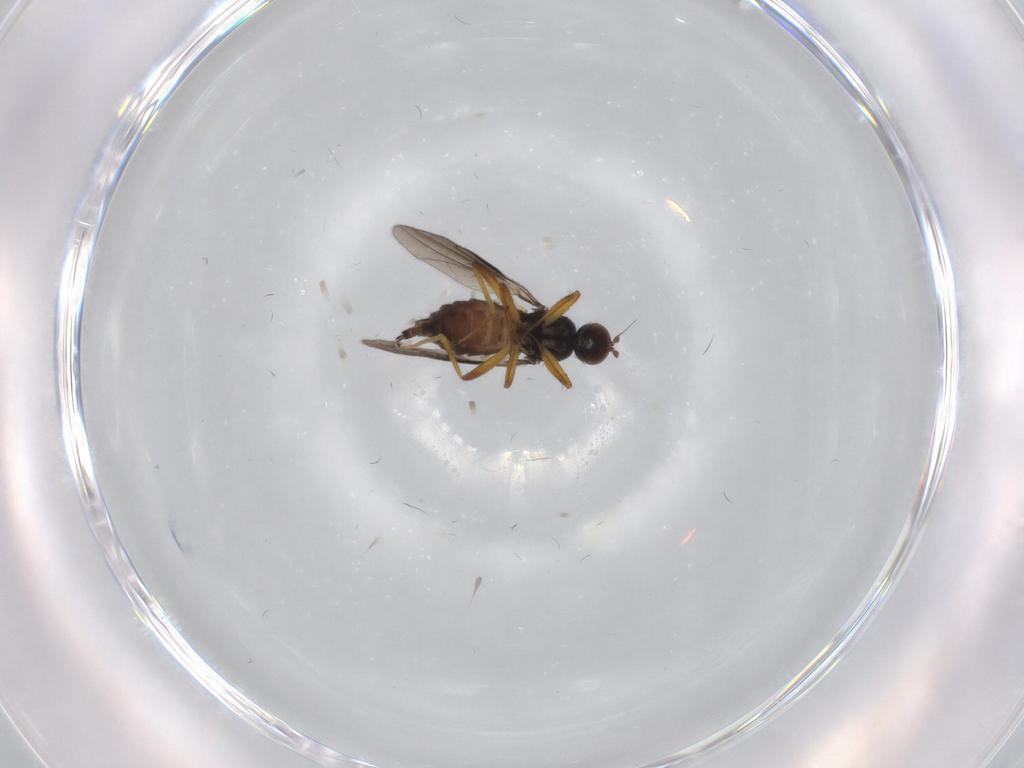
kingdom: Animalia
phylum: Arthropoda
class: Insecta
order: Diptera
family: Hybotidae
